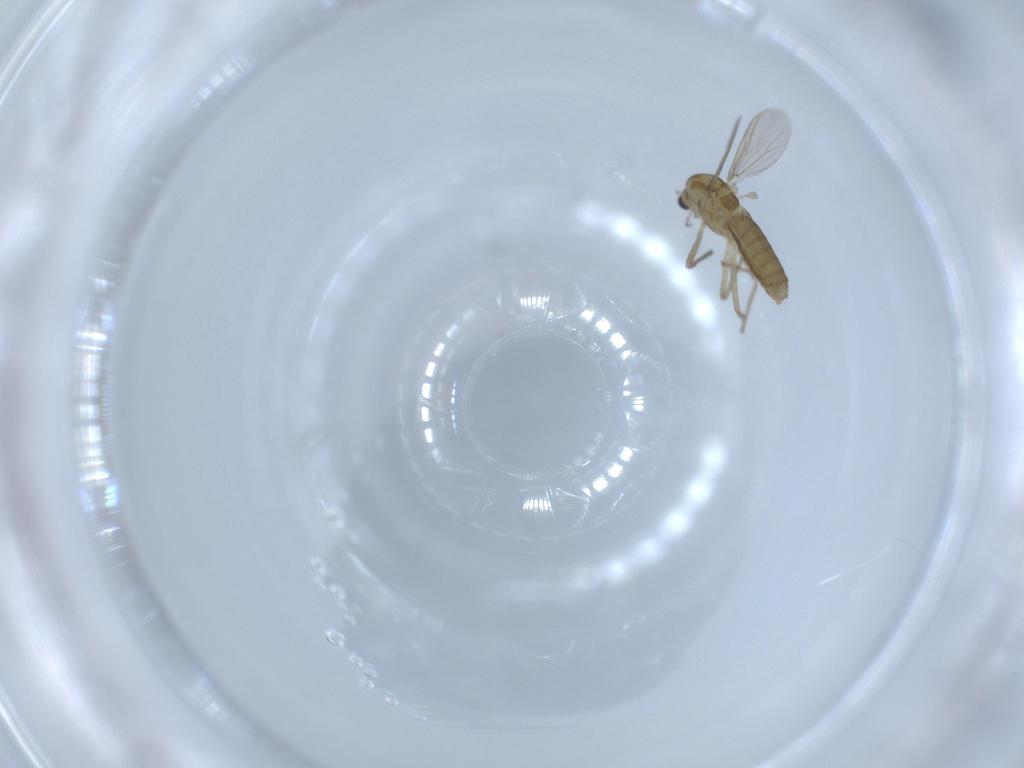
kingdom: Animalia
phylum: Arthropoda
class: Insecta
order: Diptera
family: Chironomidae
